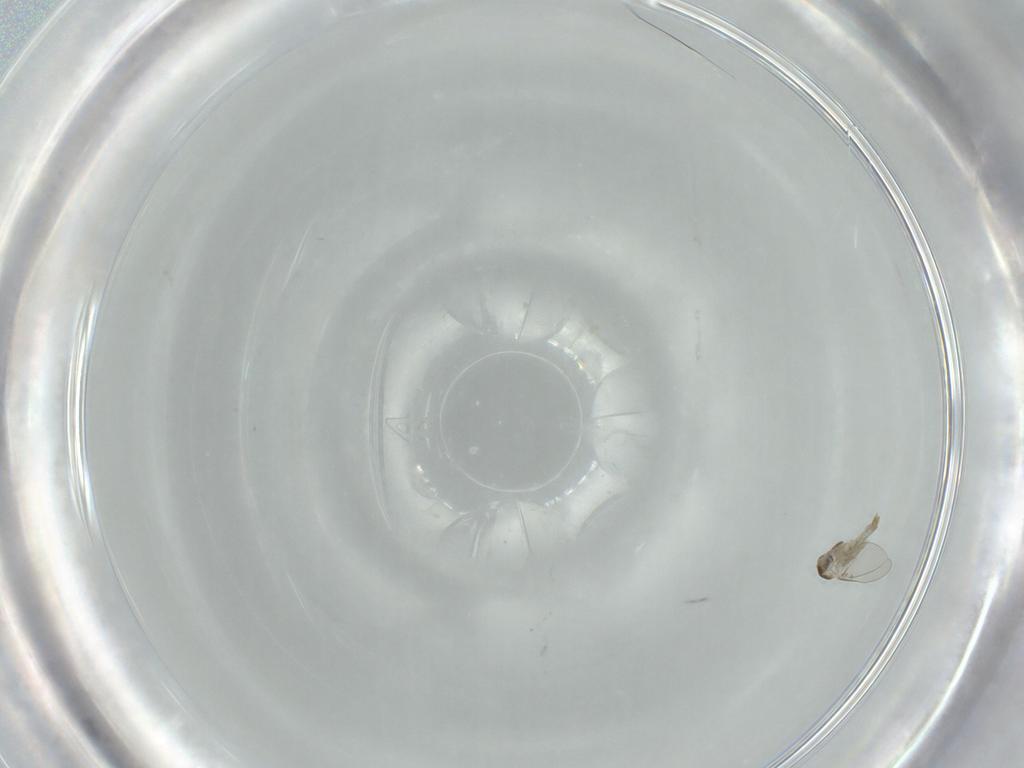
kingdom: Animalia
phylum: Arthropoda
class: Insecta
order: Diptera
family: Cecidomyiidae
